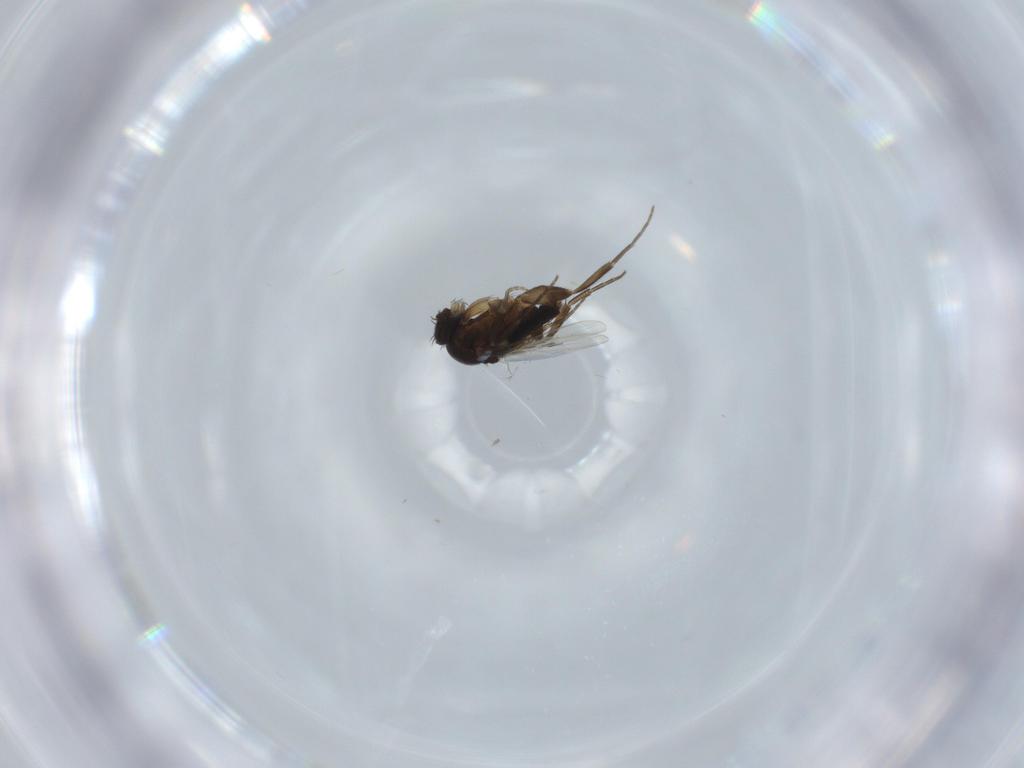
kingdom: Animalia
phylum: Arthropoda
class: Insecta
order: Diptera
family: Phoridae
